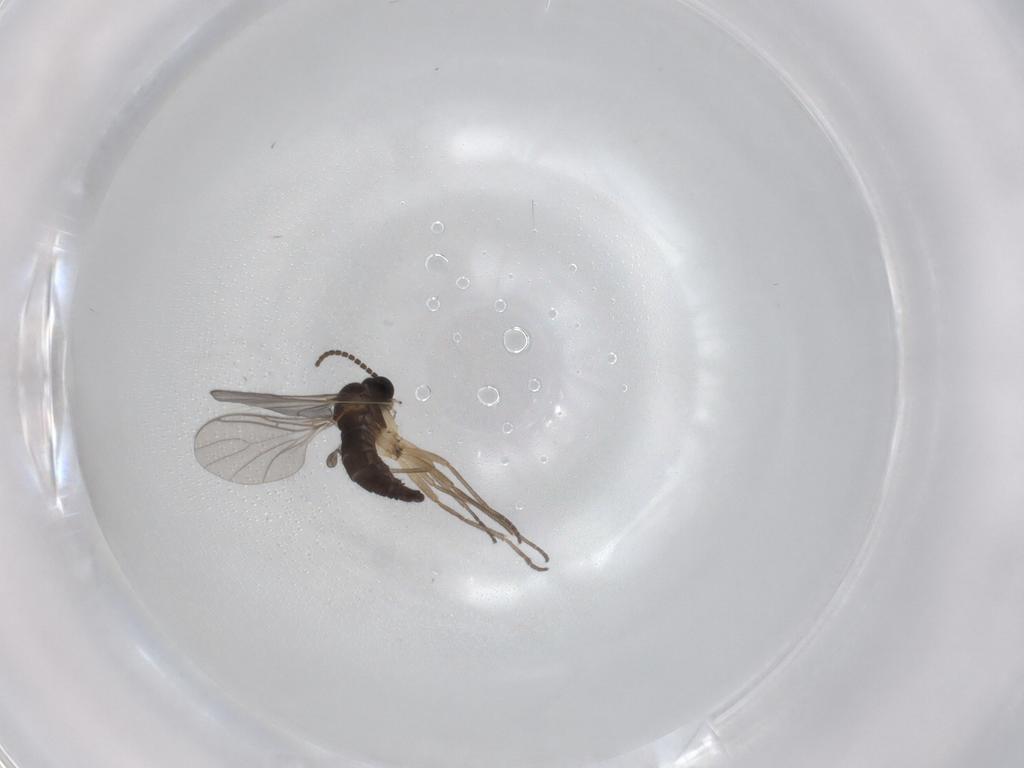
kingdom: Animalia
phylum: Arthropoda
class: Insecta
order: Diptera
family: Sciaridae
